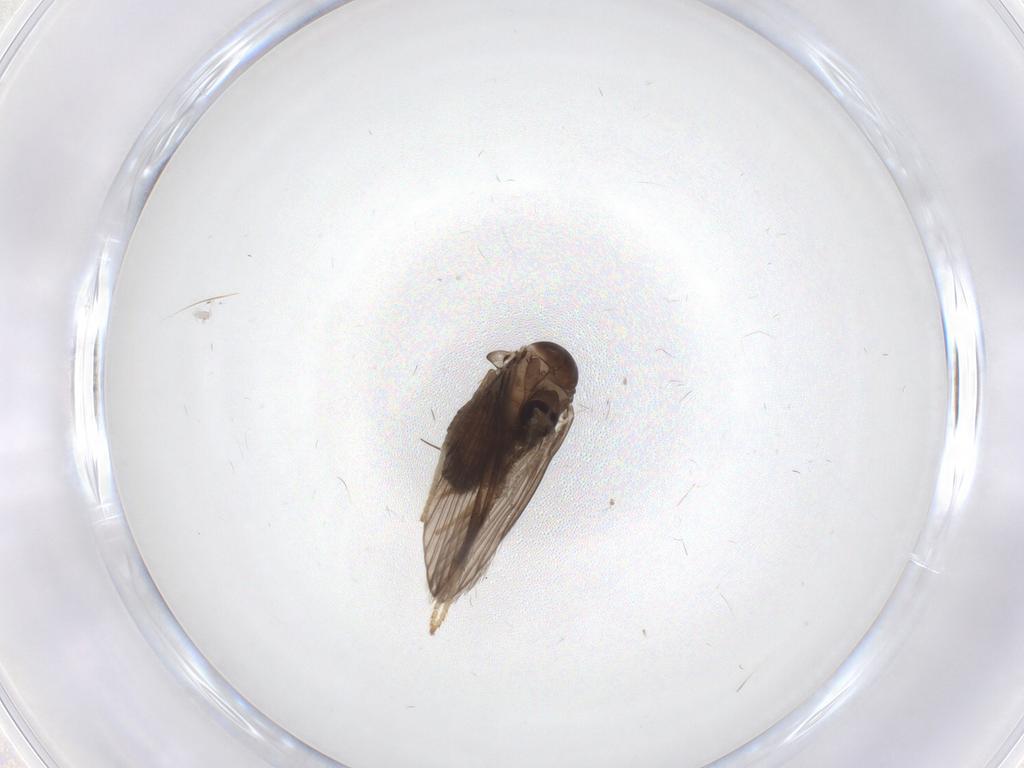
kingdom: Animalia
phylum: Arthropoda
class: Insecta
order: Diptera
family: Psychodidae
